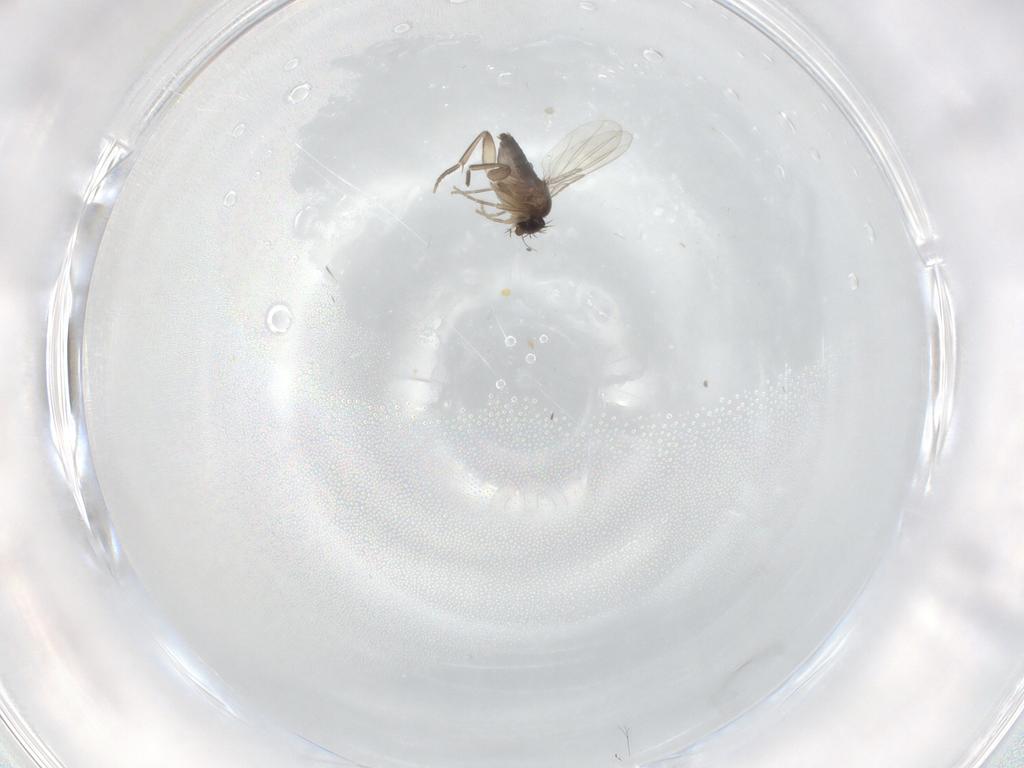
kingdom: Animalia
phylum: Arthropoda
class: Insecta
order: Diptera
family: Phoridae
